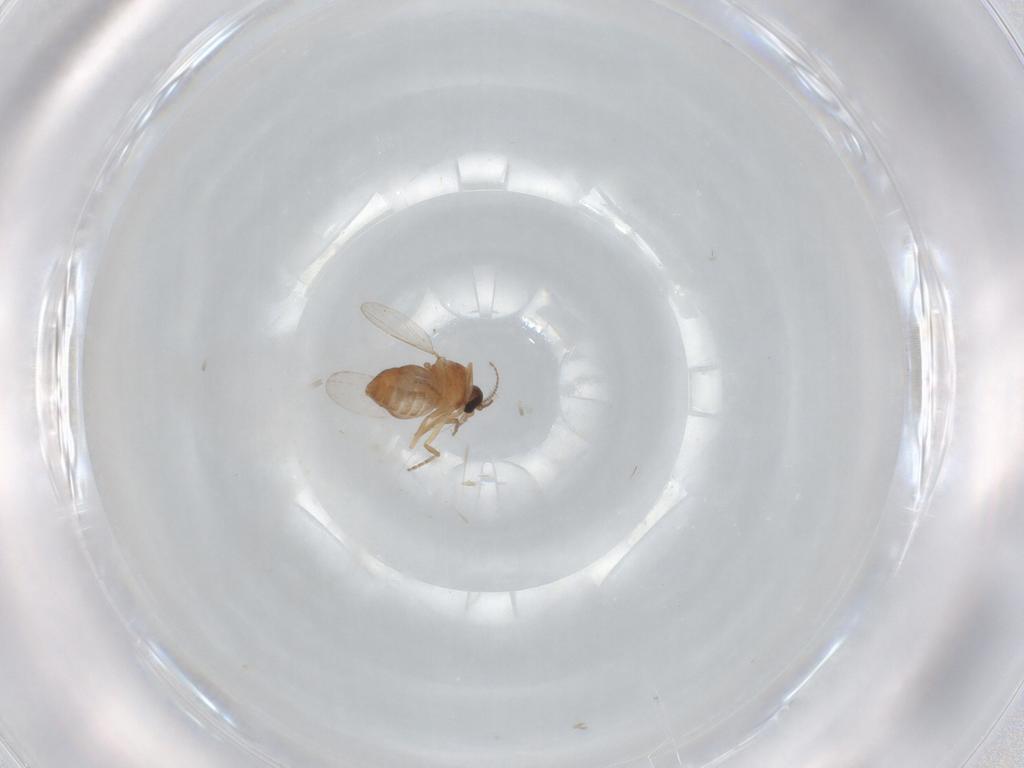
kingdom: Animalia
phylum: Arthropoda
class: Insecta
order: Diptera
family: Ceratopogonidae
